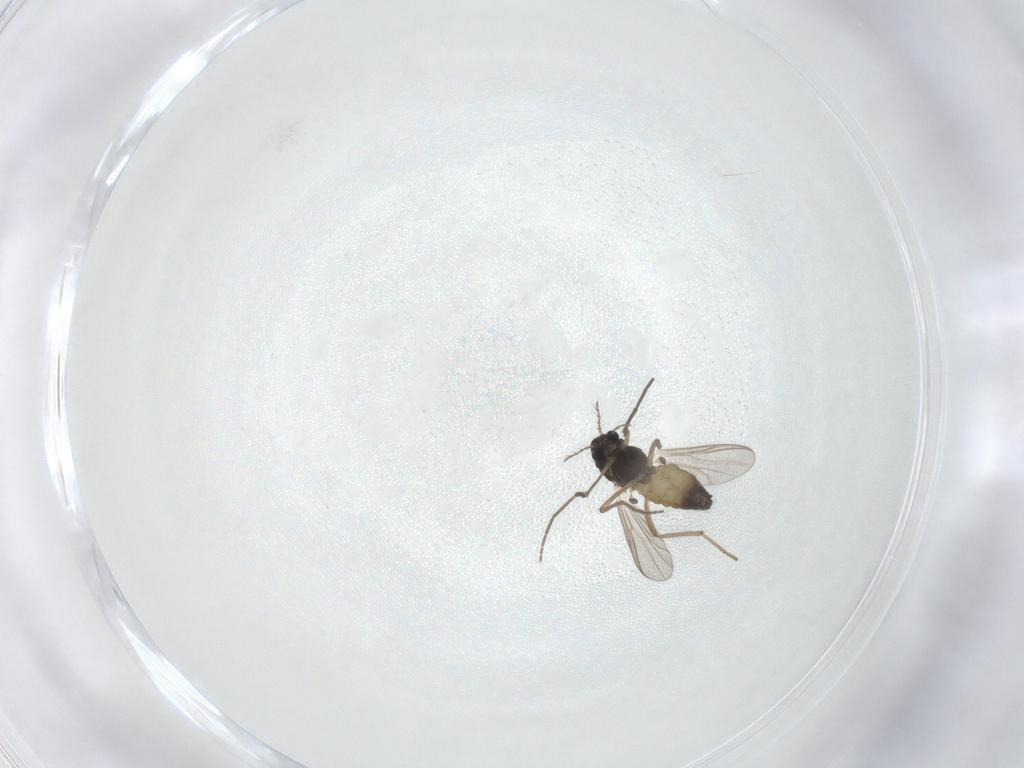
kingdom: Animalia
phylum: Arthropoda
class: Insecta
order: Diptera
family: Chironomidae
